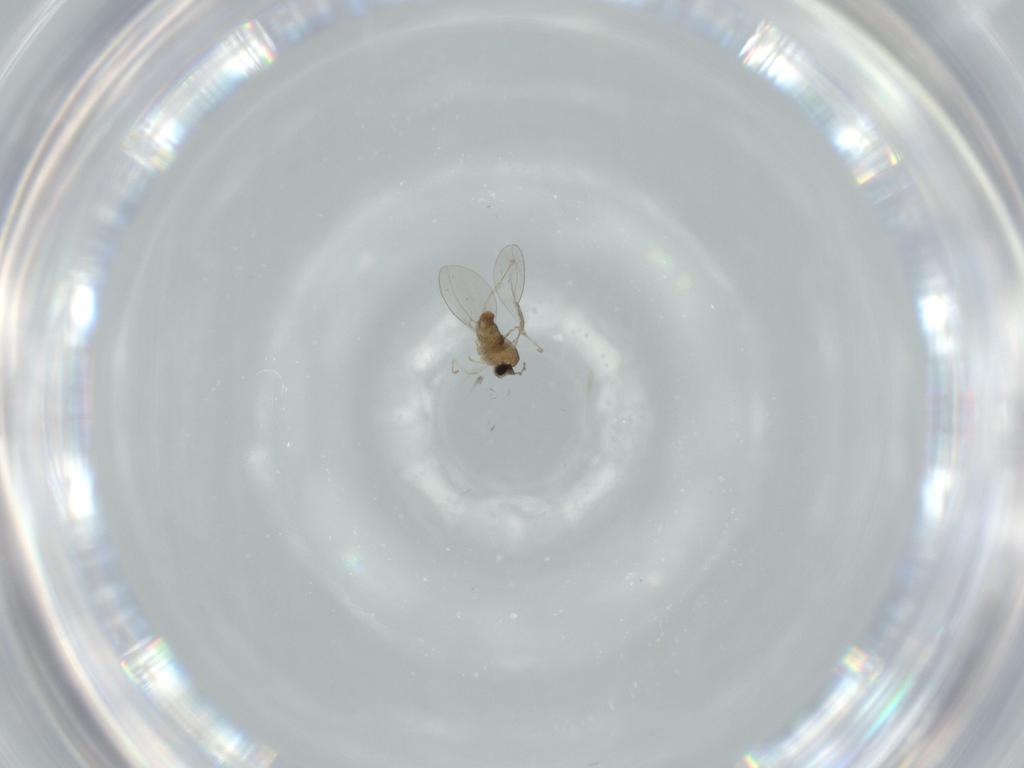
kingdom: Animalia
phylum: Arthropoda
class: Insecta
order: Diptera
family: Cecidomyiidae
